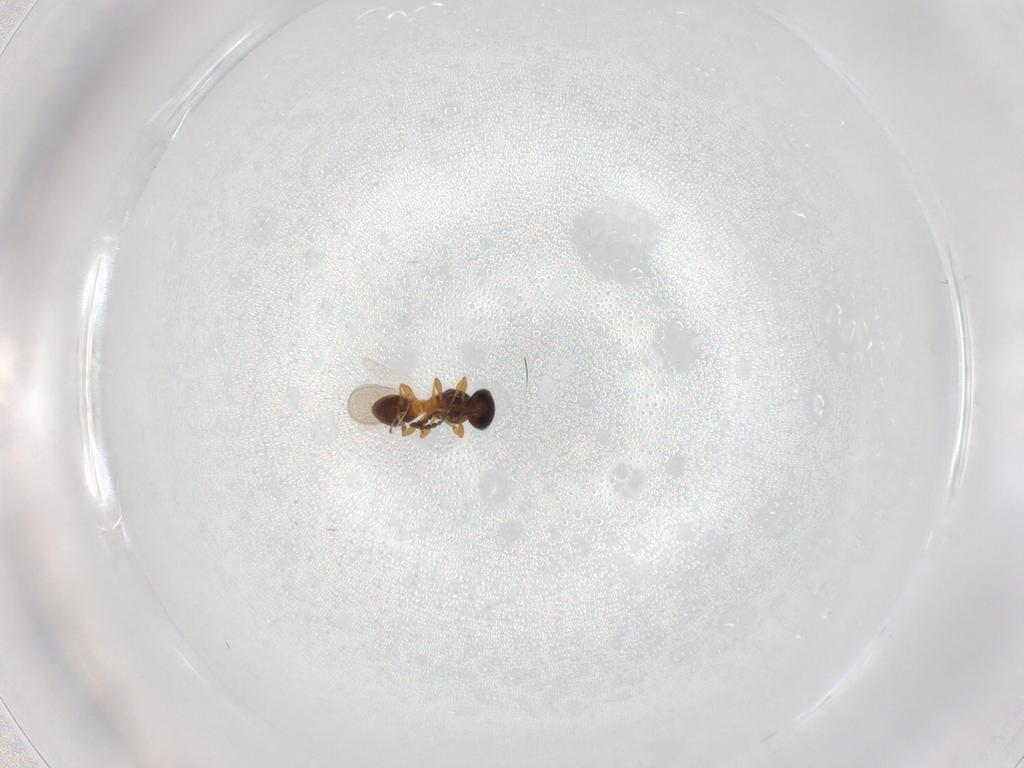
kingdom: Animalia
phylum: Arthropoda
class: Insecta
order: Hymenoptera
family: Platygastridae
